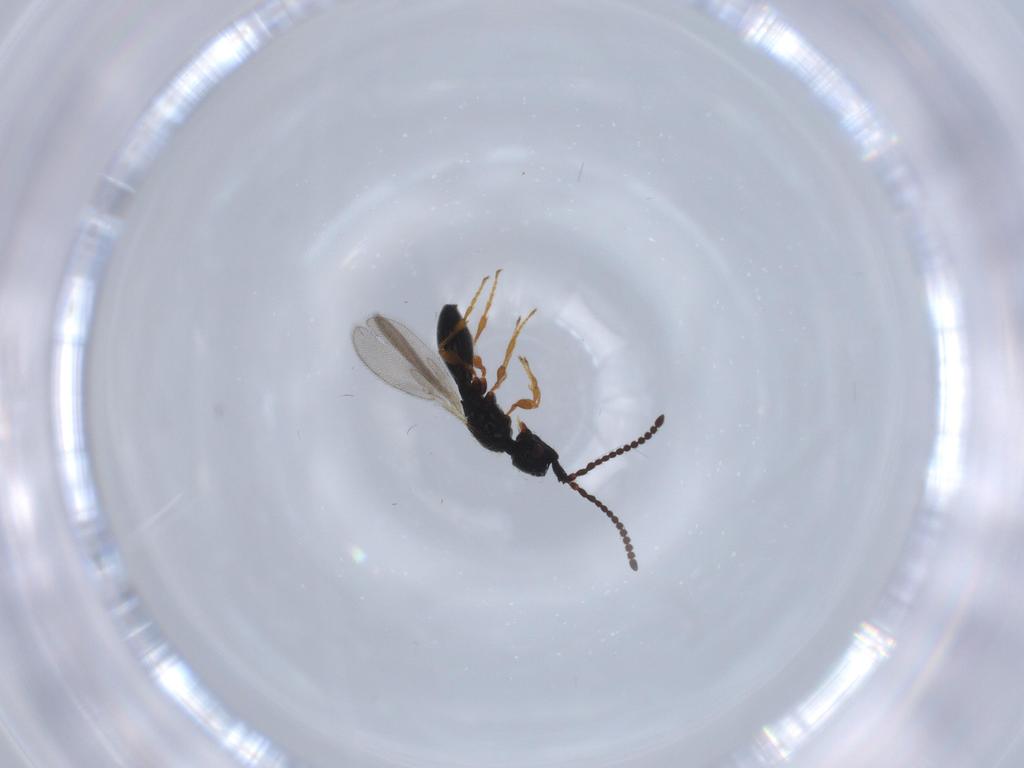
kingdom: Animalia
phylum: Arthropoda
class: Insecta
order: Hymenoptera
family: Diapriidae
